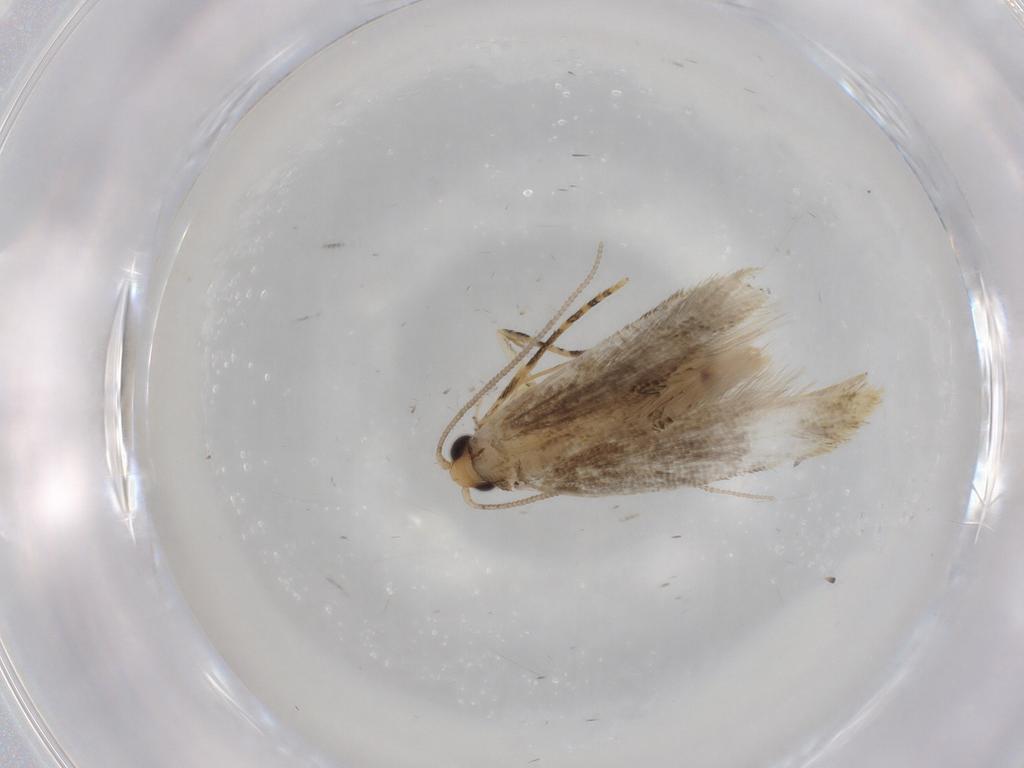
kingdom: Animalia
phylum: Arthropoda
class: Insecta
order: Lepidoptera
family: Tineidae
